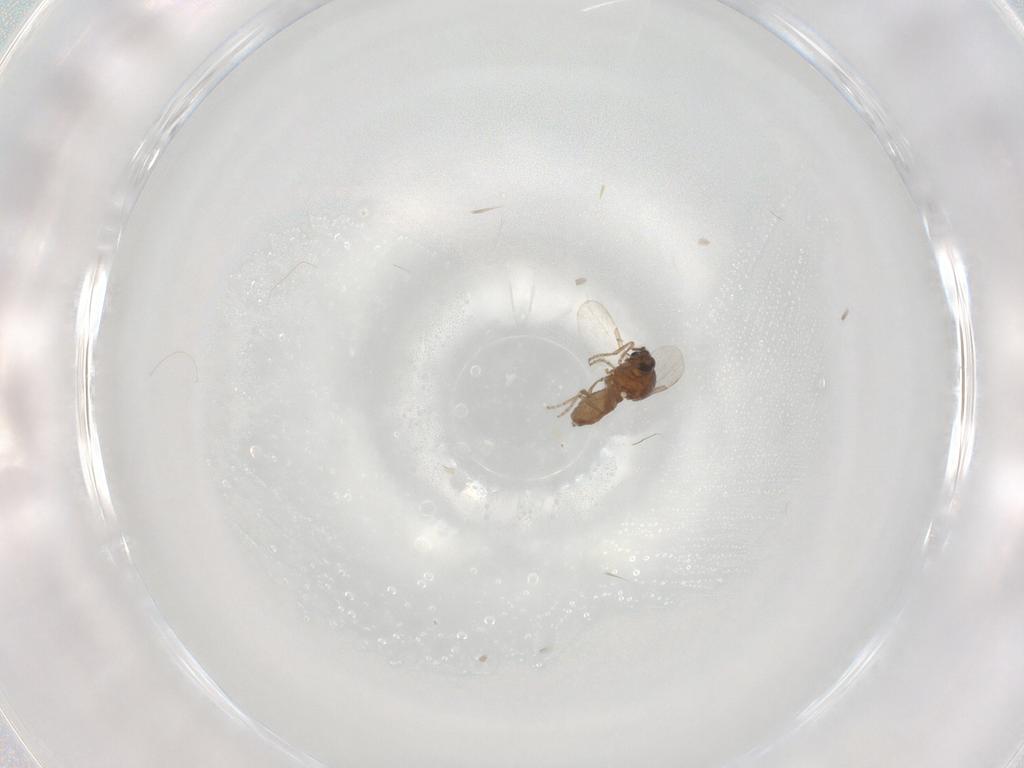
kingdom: Animalia
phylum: Arthropoda
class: Insecta
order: Diptera
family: Ceratopogonidae
